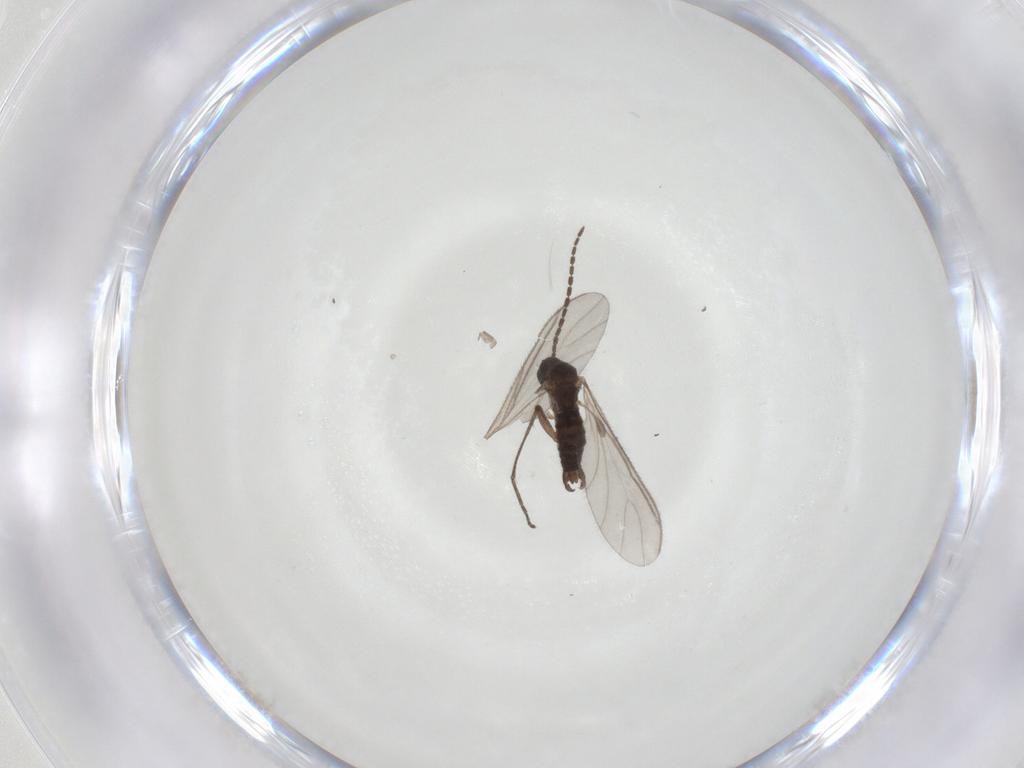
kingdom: Animalia
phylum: Arthropoda
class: Insecta
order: Diptera
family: Sciaridae
